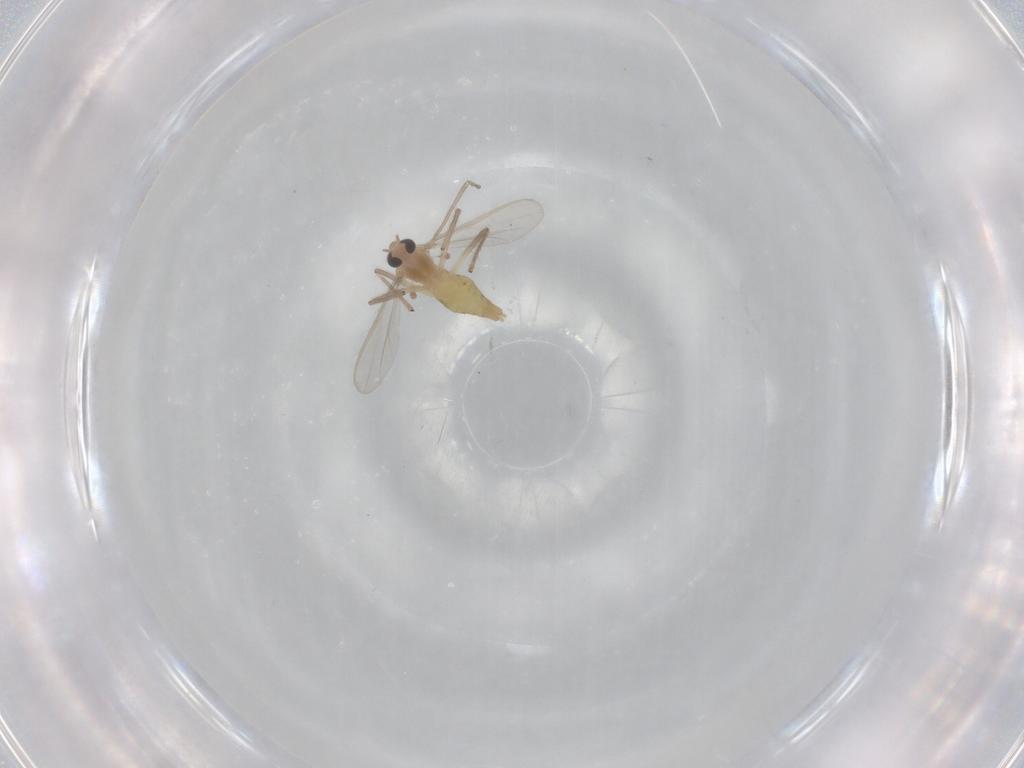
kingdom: Animalia
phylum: Arthropoda
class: Insecta
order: Diptera
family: Chironomidae
